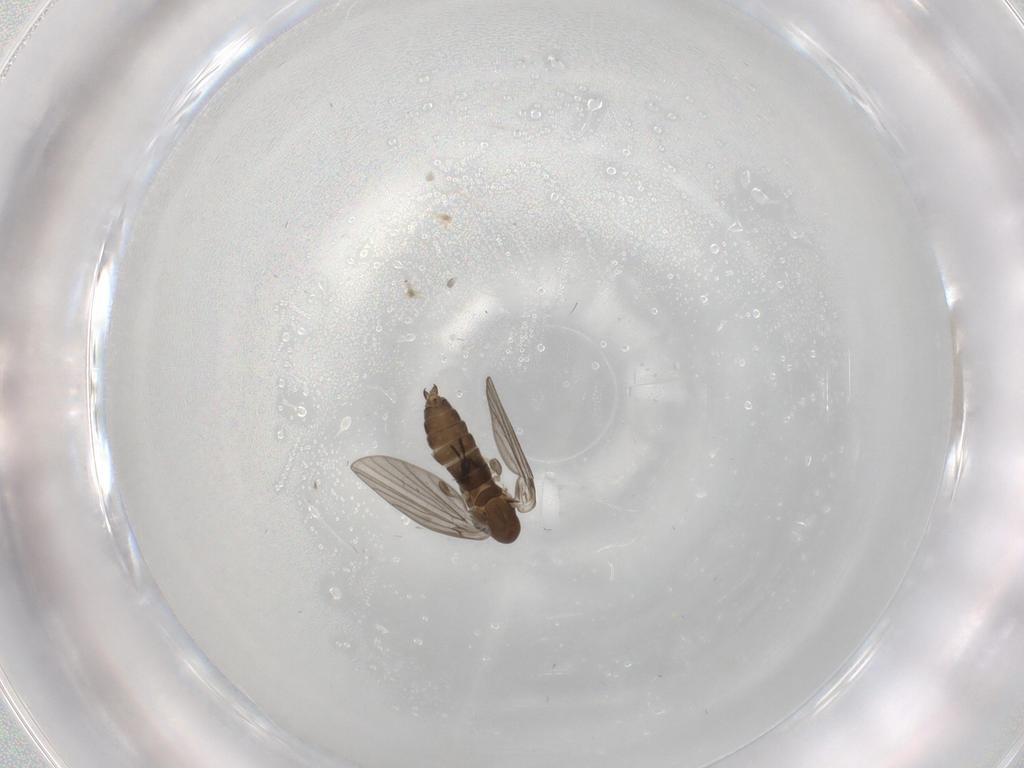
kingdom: Animalia
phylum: Arthropoda
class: Insecta
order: Diptera
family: Psychodidae
